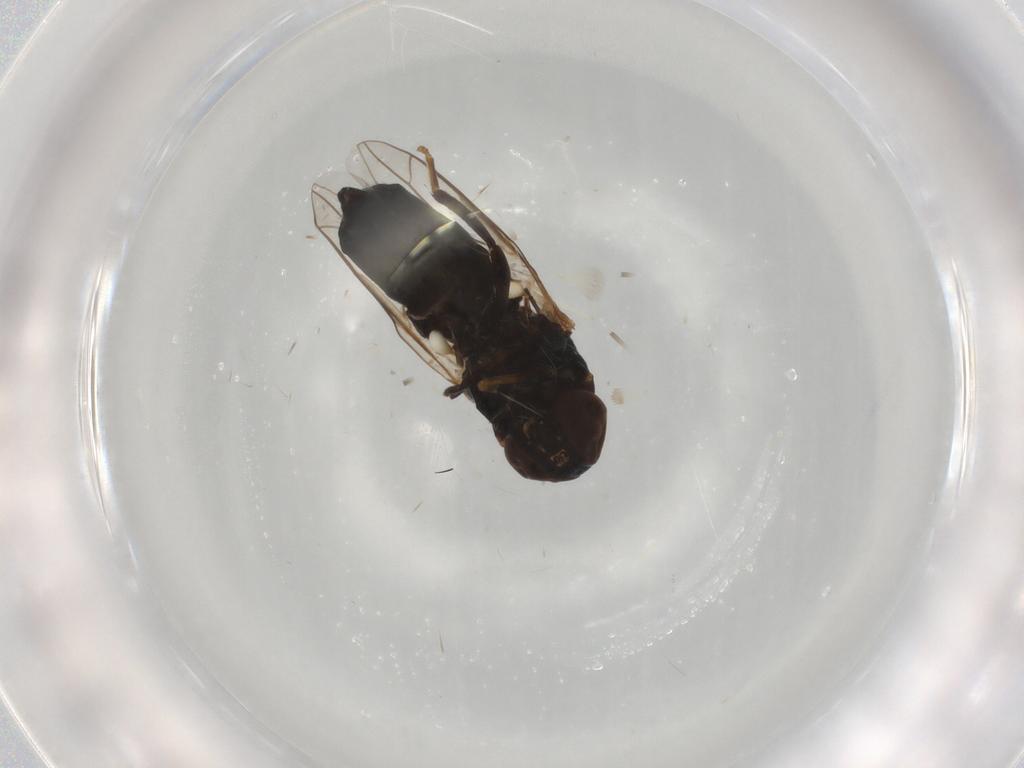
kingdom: Animalia
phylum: Arthropoda
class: Insecta
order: Diptera
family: Scenopinidae
